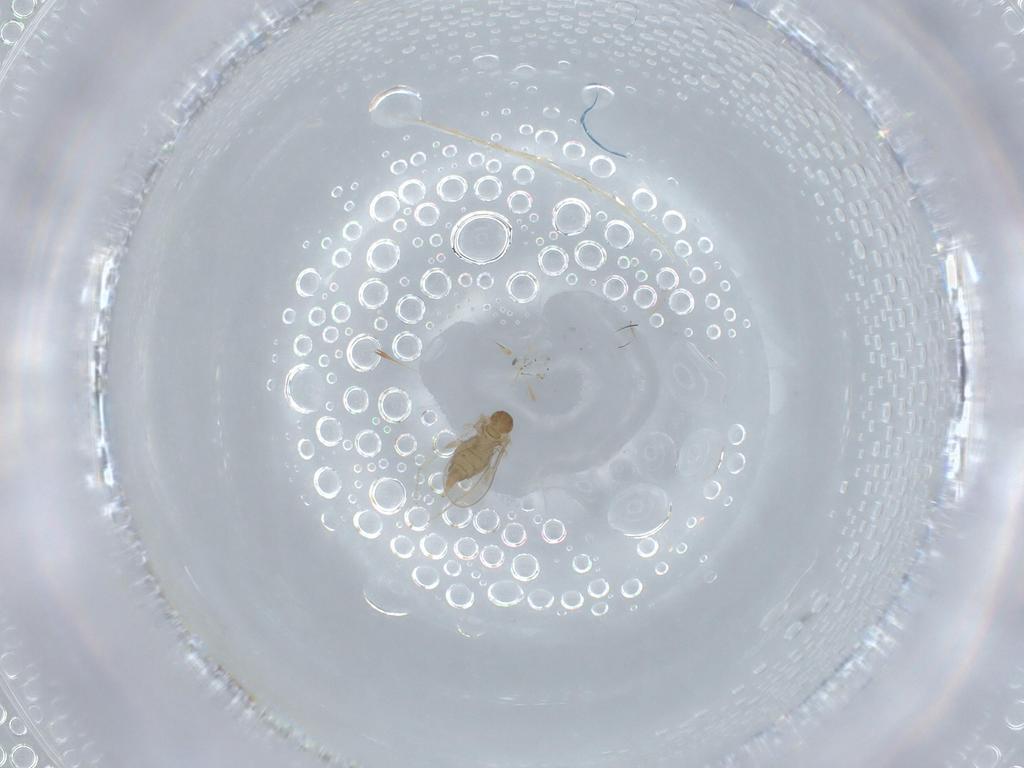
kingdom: Animalia
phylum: Arthropoda
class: Insecta
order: Diptera
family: Cecidomyiidae
